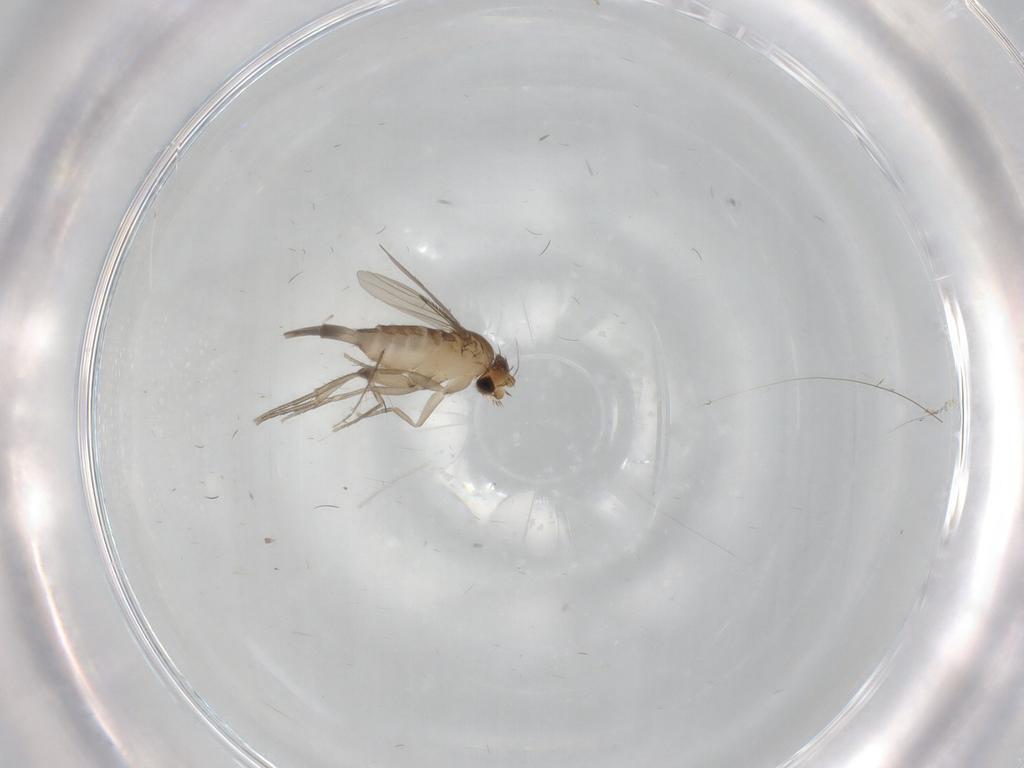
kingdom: Animalia
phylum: Arthropoda
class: Insecta
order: Diptera
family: Phoridae
